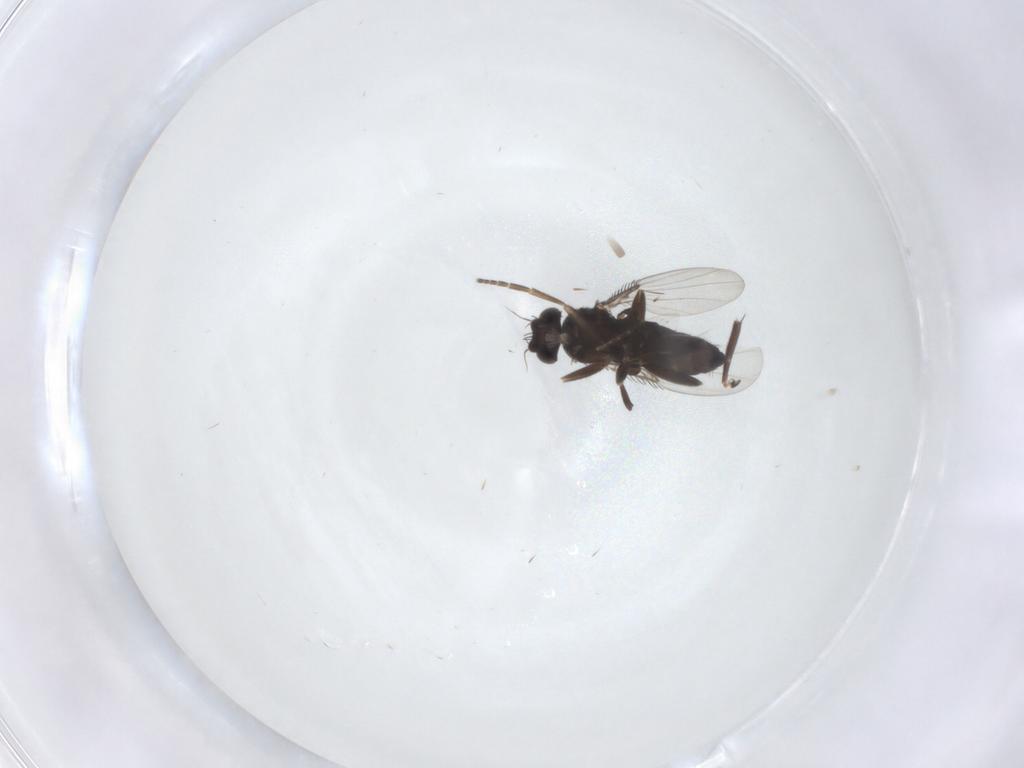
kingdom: Animalia
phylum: Arthropoda
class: Insecta
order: Diptera
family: Phoridae
